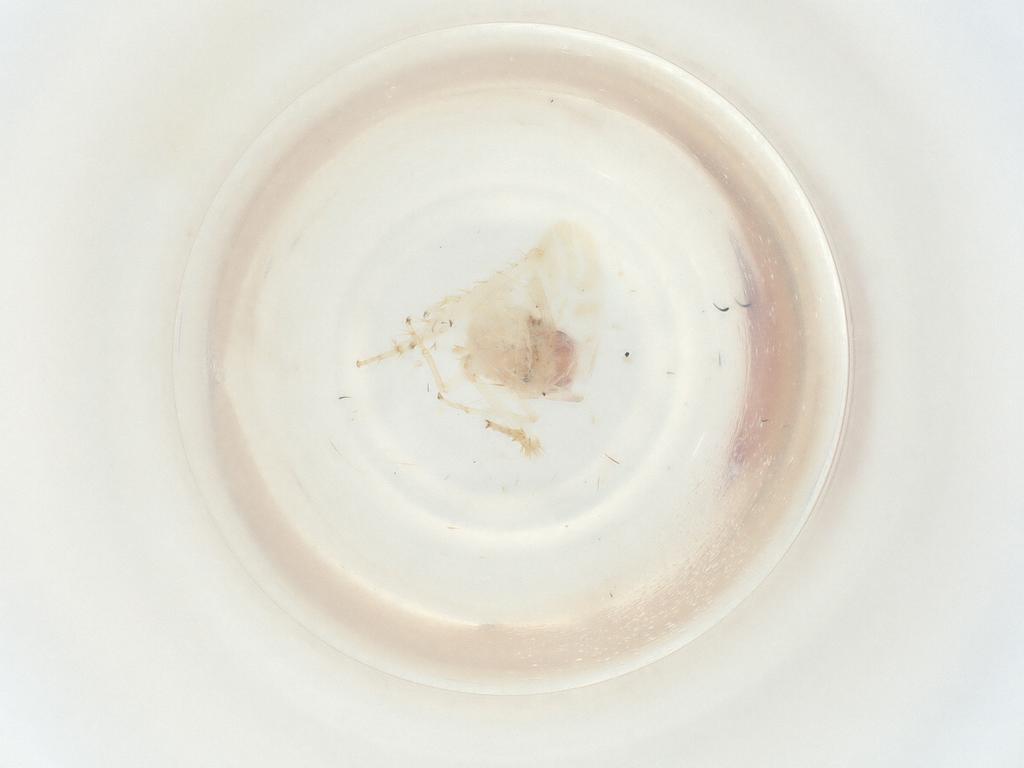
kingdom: Animalia
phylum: Arthropoda
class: Insecta
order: Hymenoptera
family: Dryinidae
